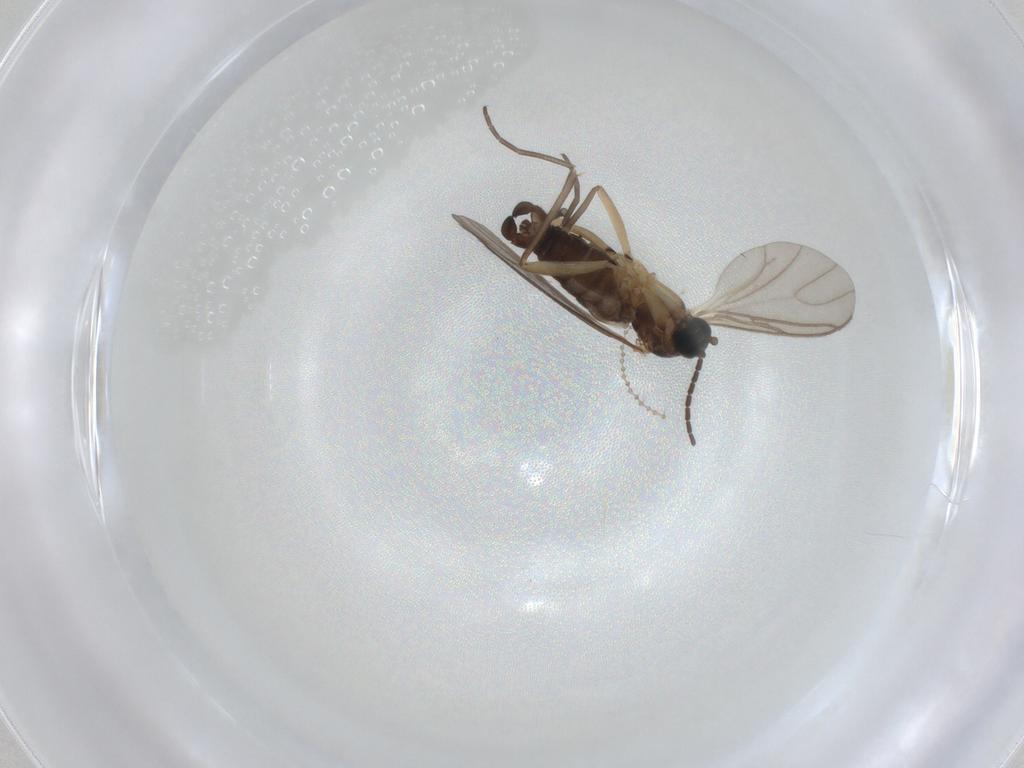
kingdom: Animalia
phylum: Arthropoda
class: Insecta
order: Diptera
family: Sciaridae
